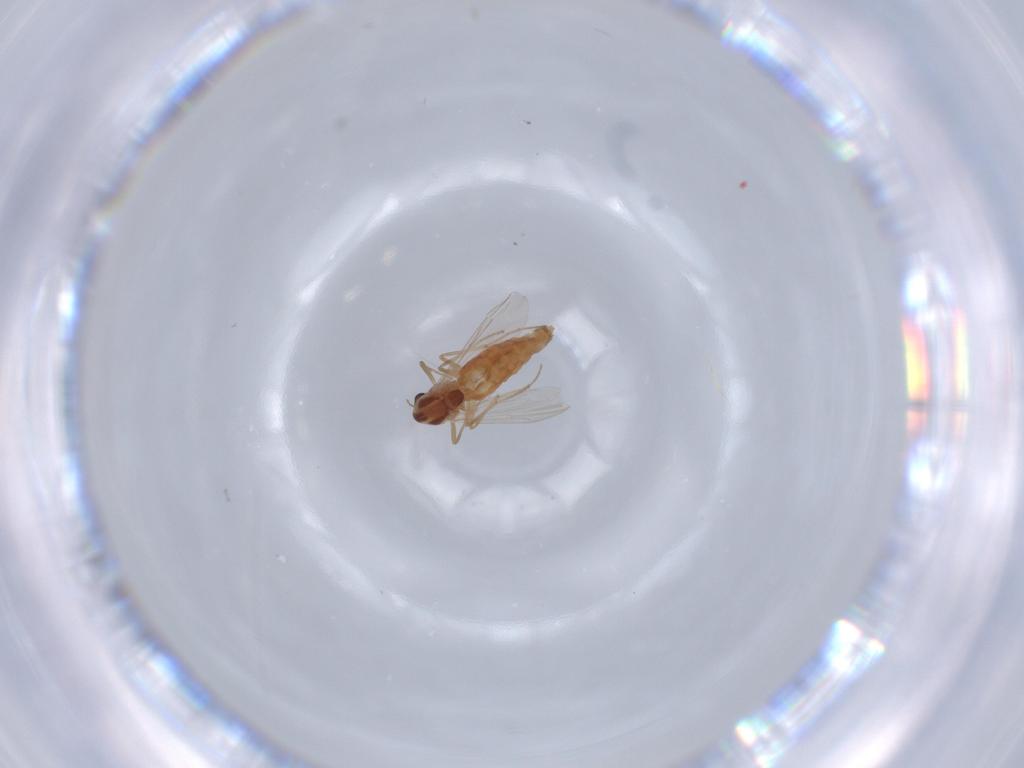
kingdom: Animalia
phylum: Arthropoda
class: Insecta
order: Diptera
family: Chironomidae
